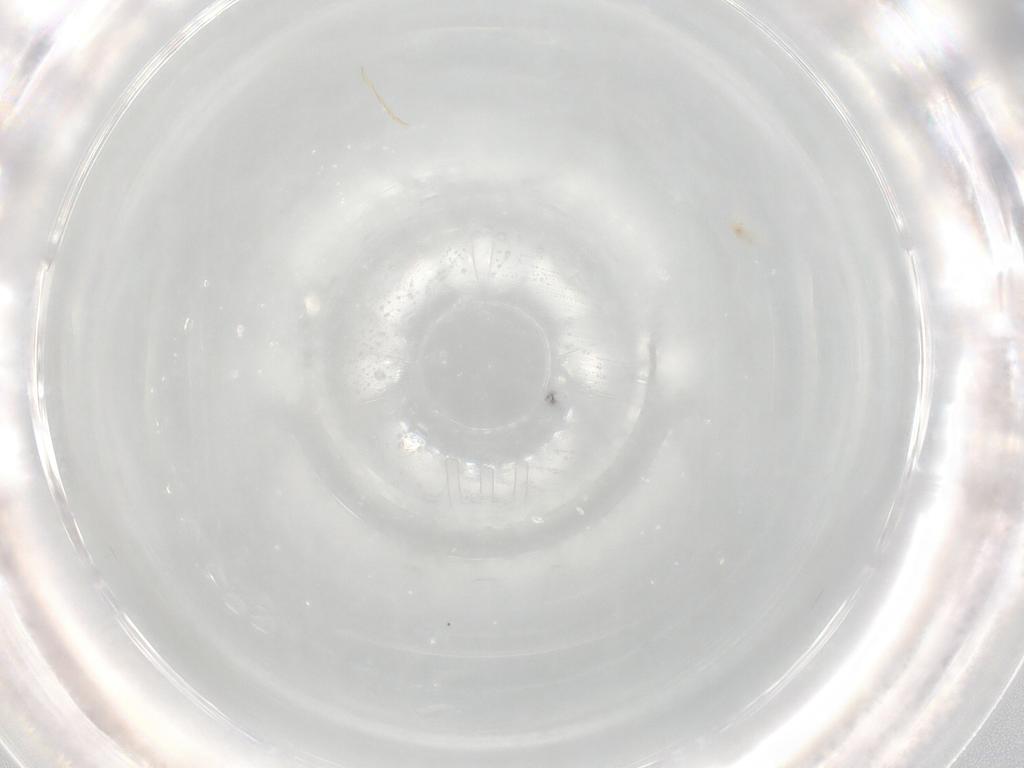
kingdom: Animalia
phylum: Arthropoda
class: Arachnida
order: Trombidiformes
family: Rhagidiidae
